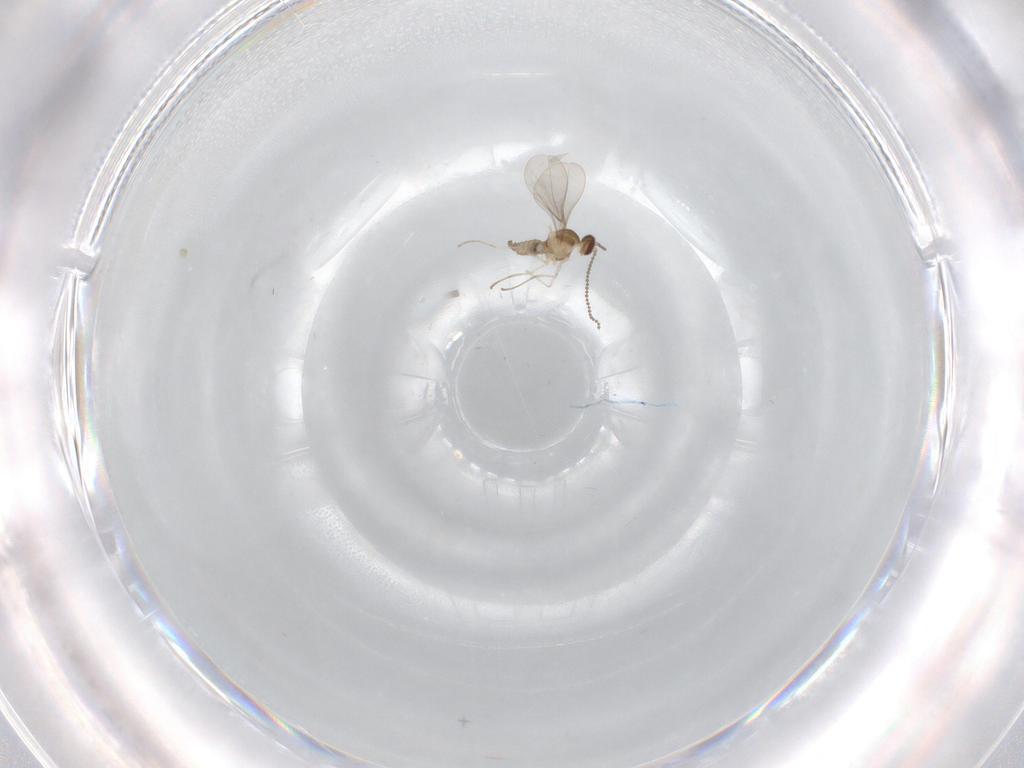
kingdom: Animalia
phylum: Arthropoda
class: Insecta
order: Diptera
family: Cecidomyiidae
